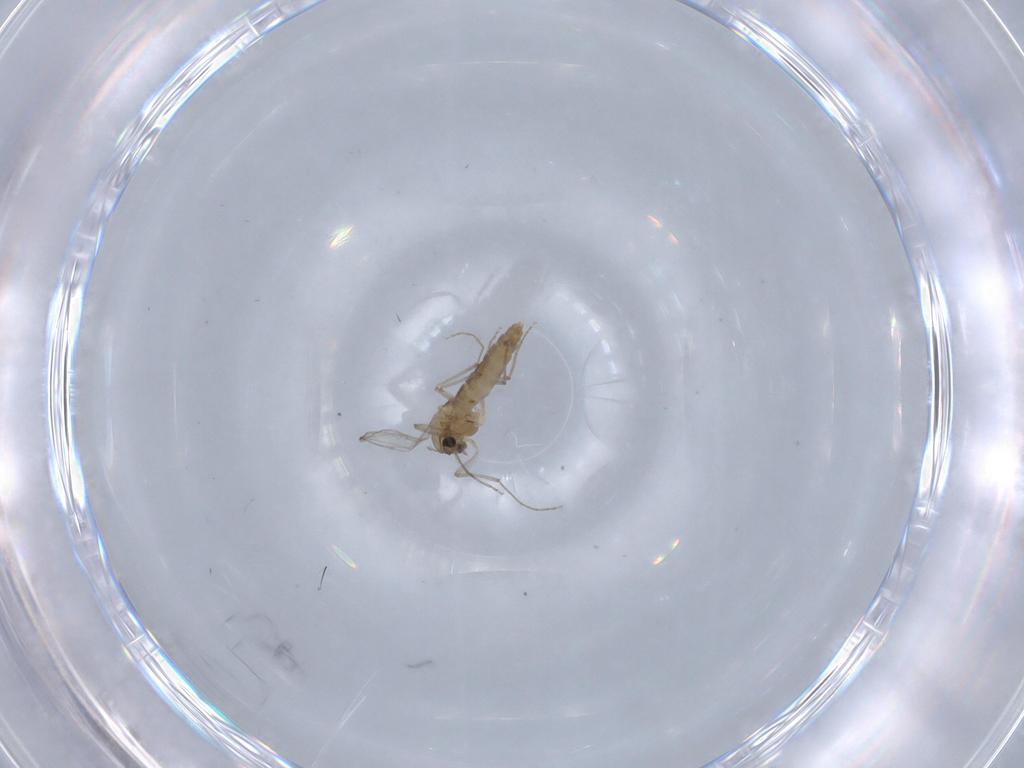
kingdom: Animalia
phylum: Arthropoda
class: Insecta
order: Diptera
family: Chironomidae
